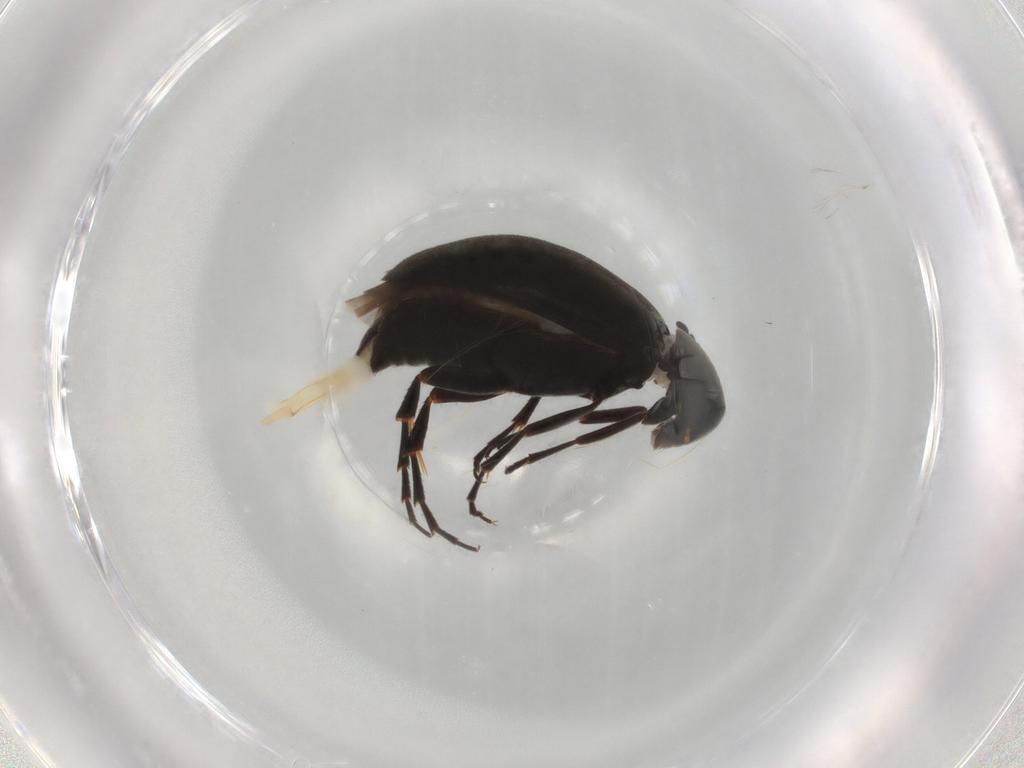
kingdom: Animalia
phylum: Arthropoda
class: Insecta
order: Coleoptera
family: Scraptiidae
